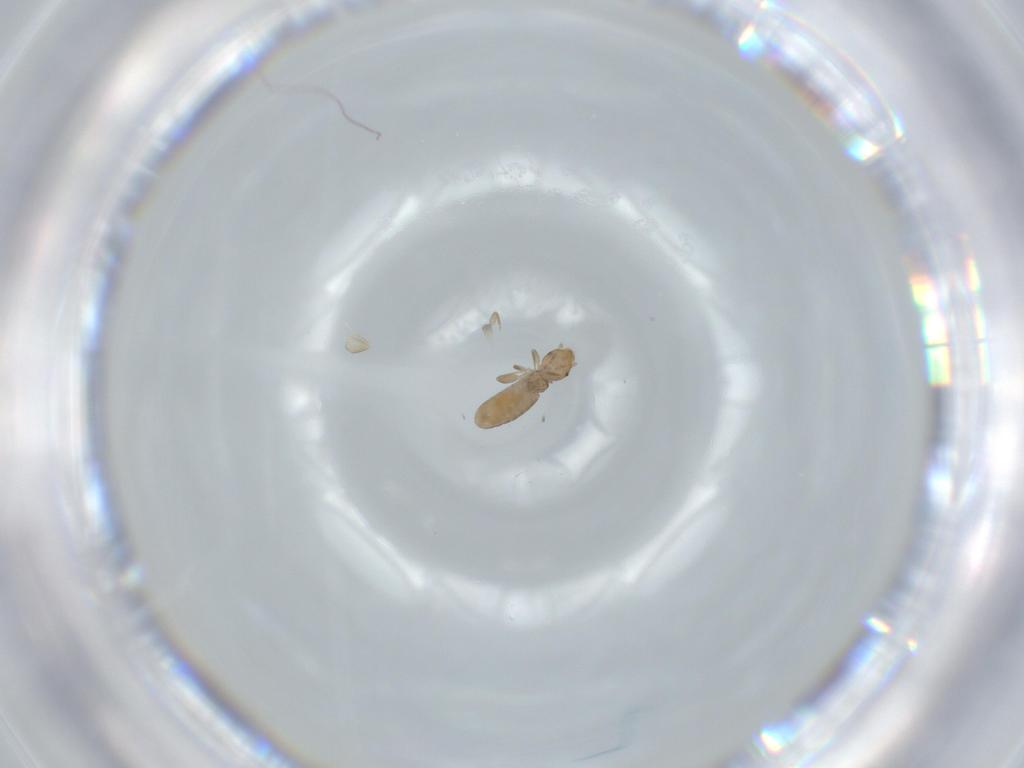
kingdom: Animalia
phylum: Arthropoda
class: Insecta
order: Psocodea
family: Liposcelididae
